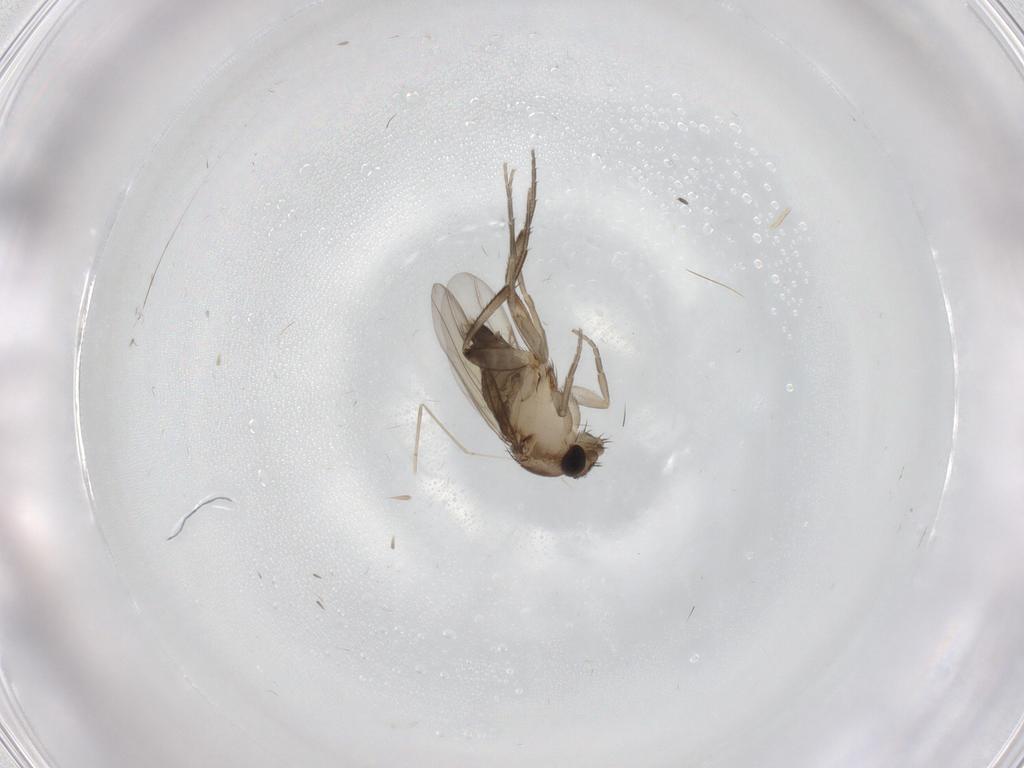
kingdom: Animalia
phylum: Arthropoda
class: Insecta
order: Diptera
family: Phoridae
